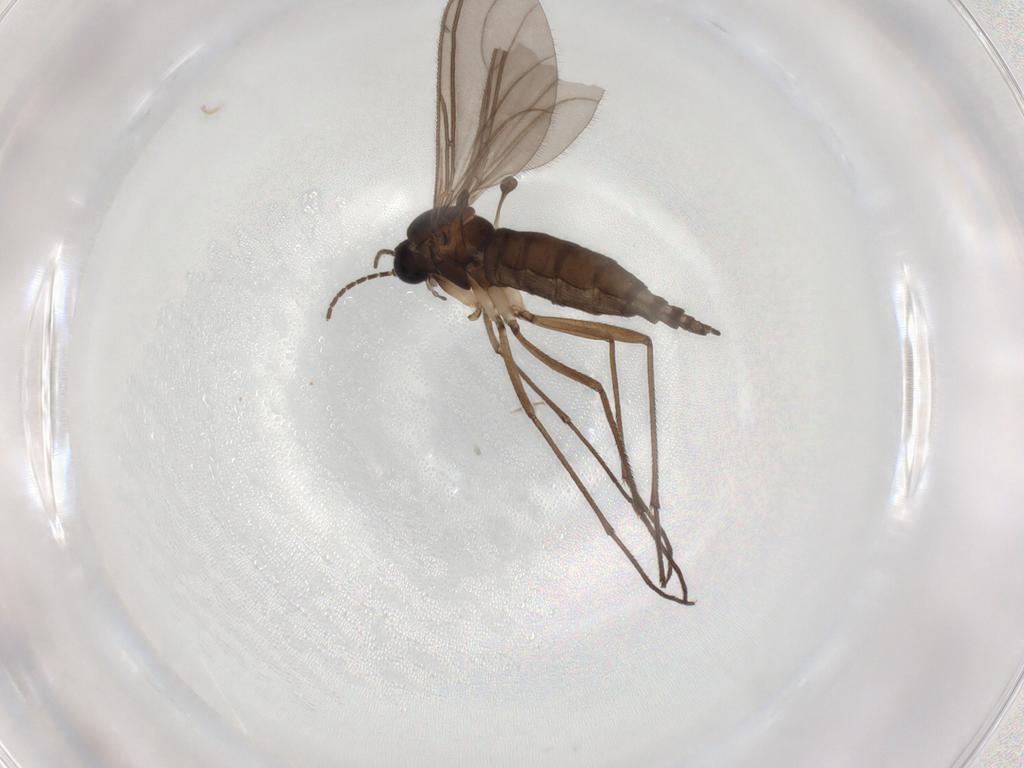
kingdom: Animalia
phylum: Arthropoda
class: Insecta
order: Diptera
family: Sciaridae
